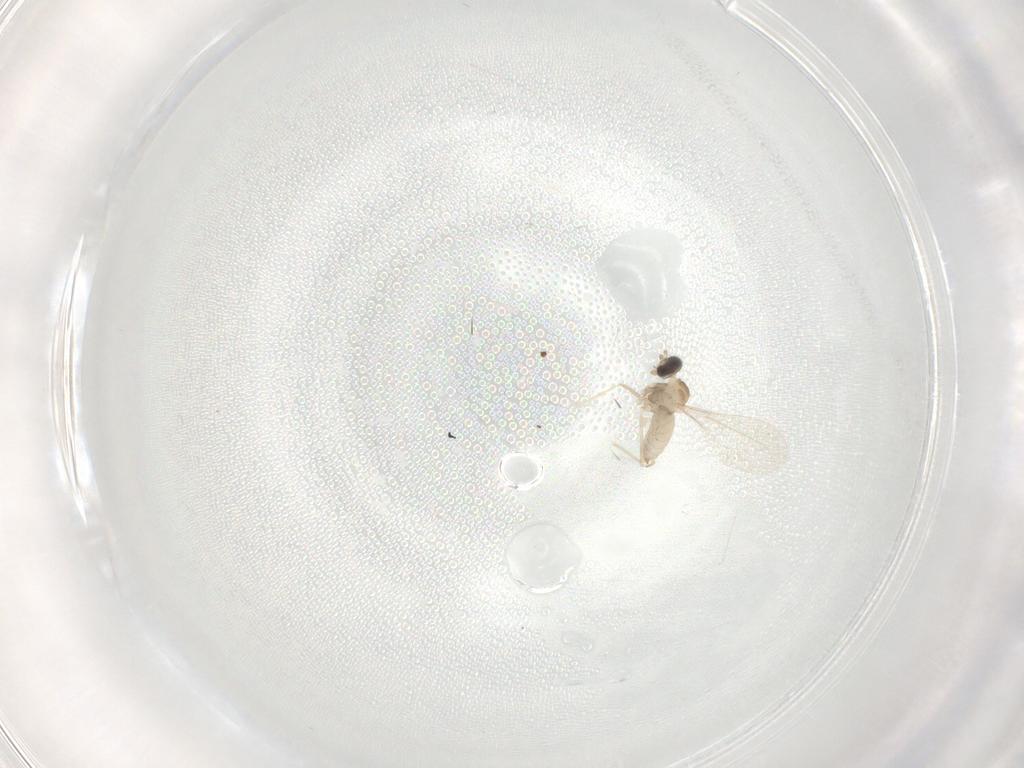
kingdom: Animalia
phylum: Arthropoda
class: Insecta
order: Diptera
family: Cecidomyiidae
